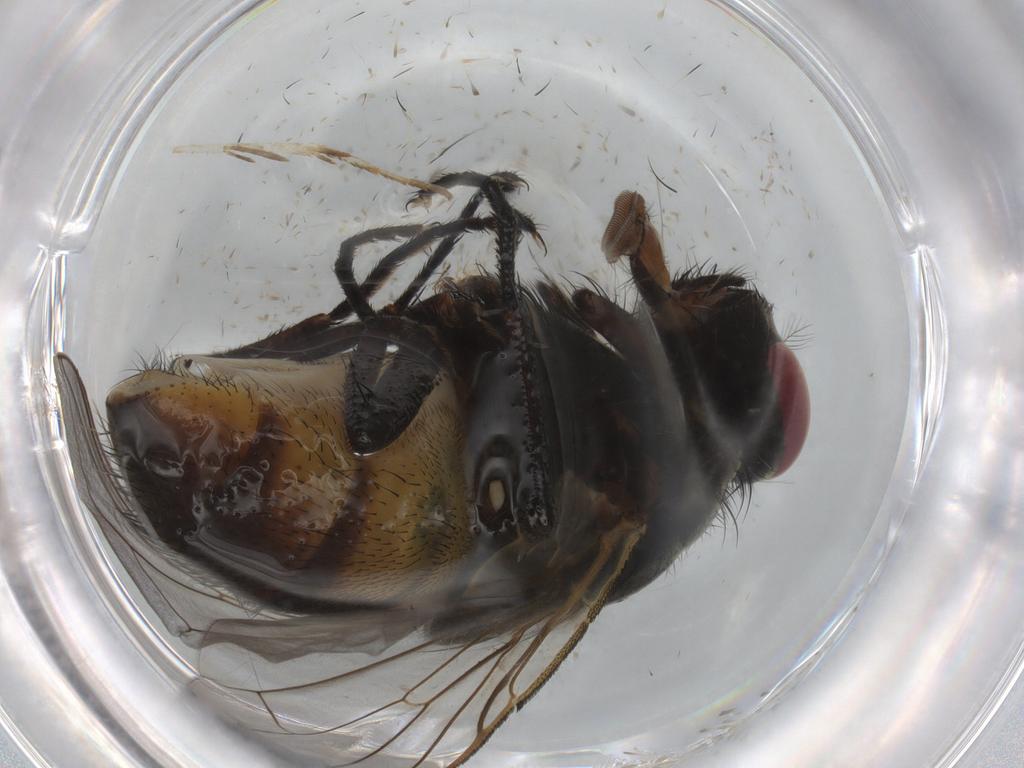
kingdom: Animalia
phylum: Arthropoda
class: Insecta
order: Diptera
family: Muscidae
